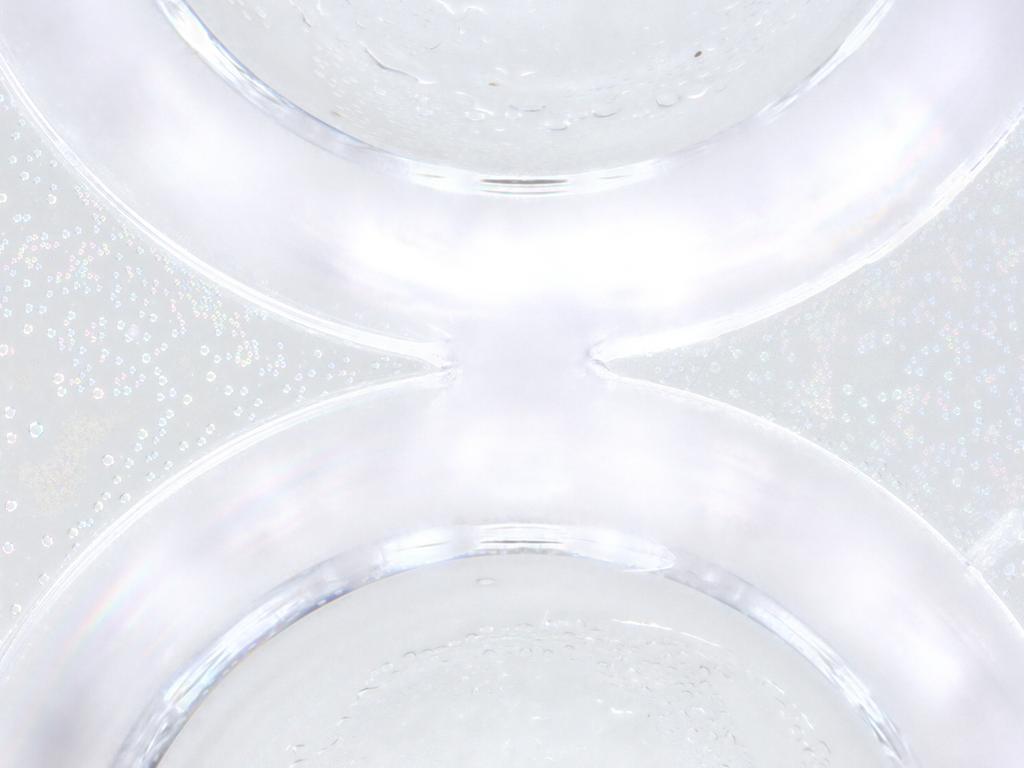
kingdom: Animalia
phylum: Arthropoda
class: Insecta
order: Diptera
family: Ceratopogonidae
